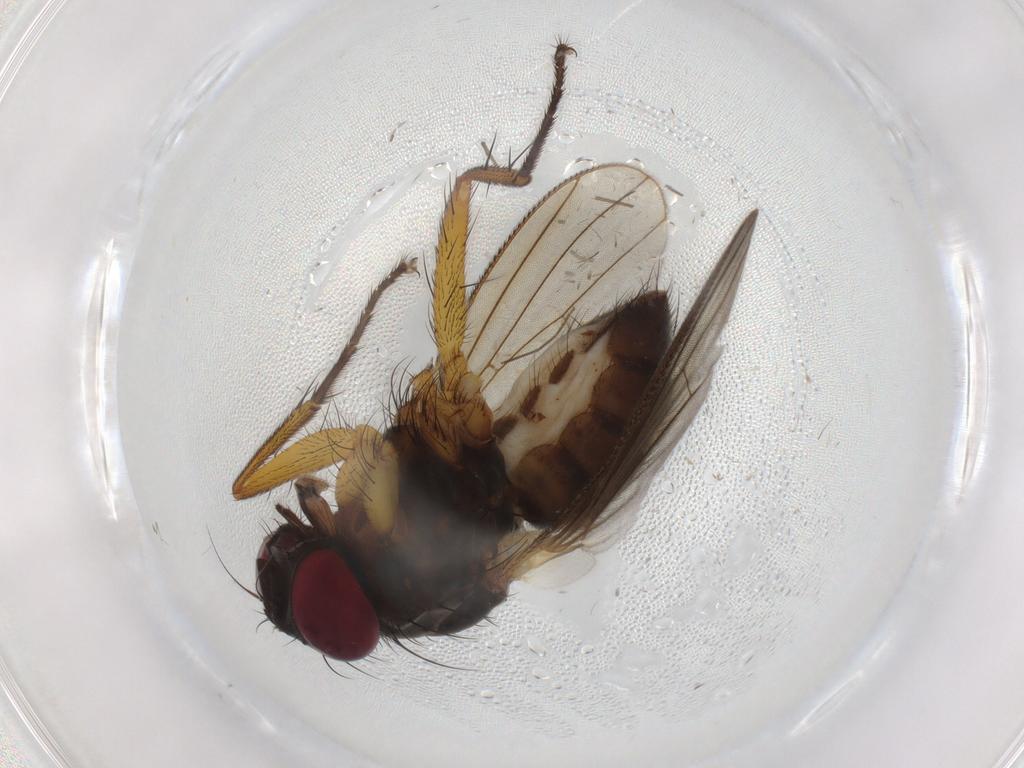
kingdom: Animalia
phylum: Arthropoda
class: Insecta
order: Diptera
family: Muscidae
